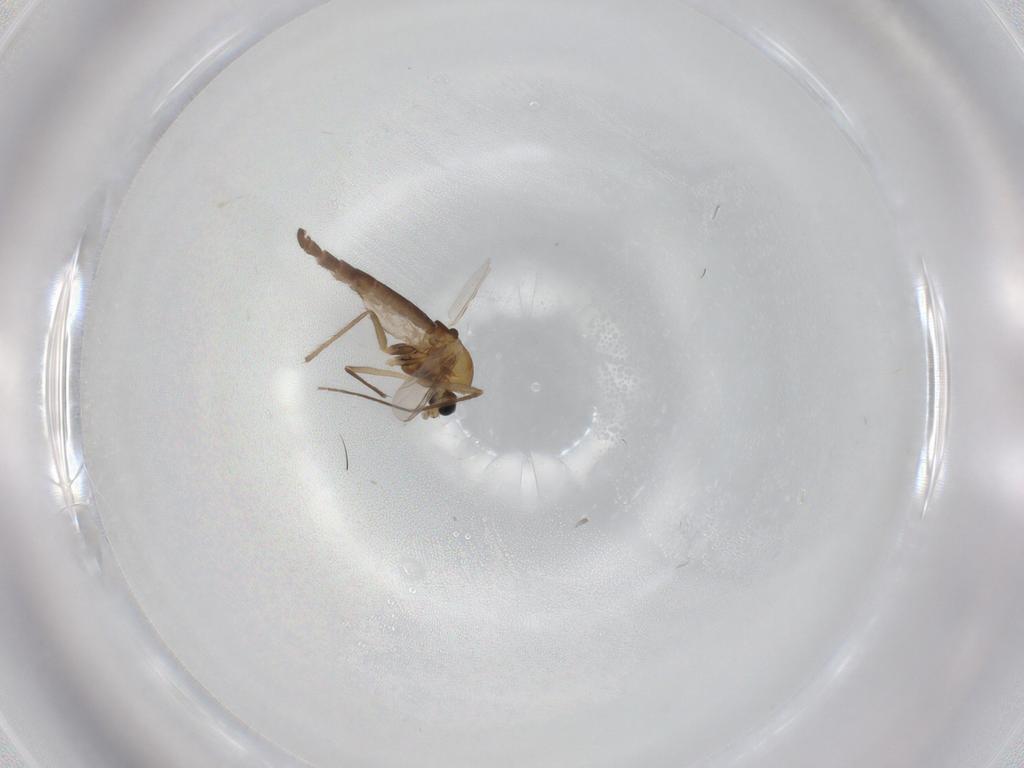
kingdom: Animalia
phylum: Arthropoda
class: Insecta
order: Diptera
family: Chironomidae
